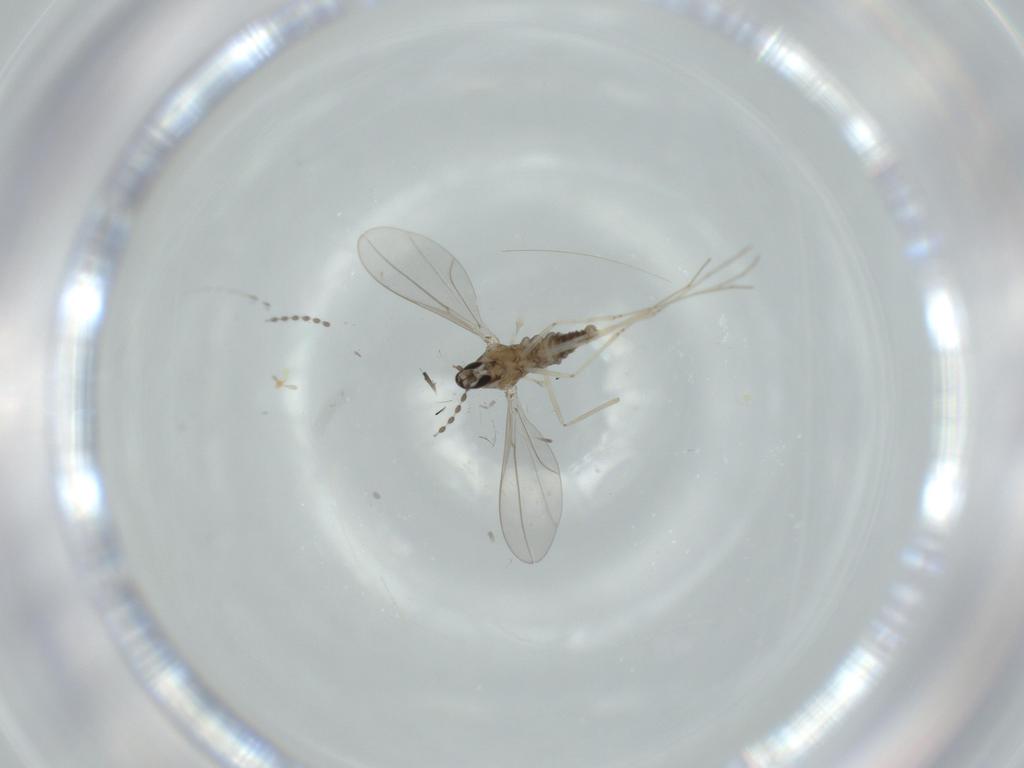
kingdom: Animalia
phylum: Arthropoda
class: Insecta
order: Diptera
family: Cecidomyiidae
